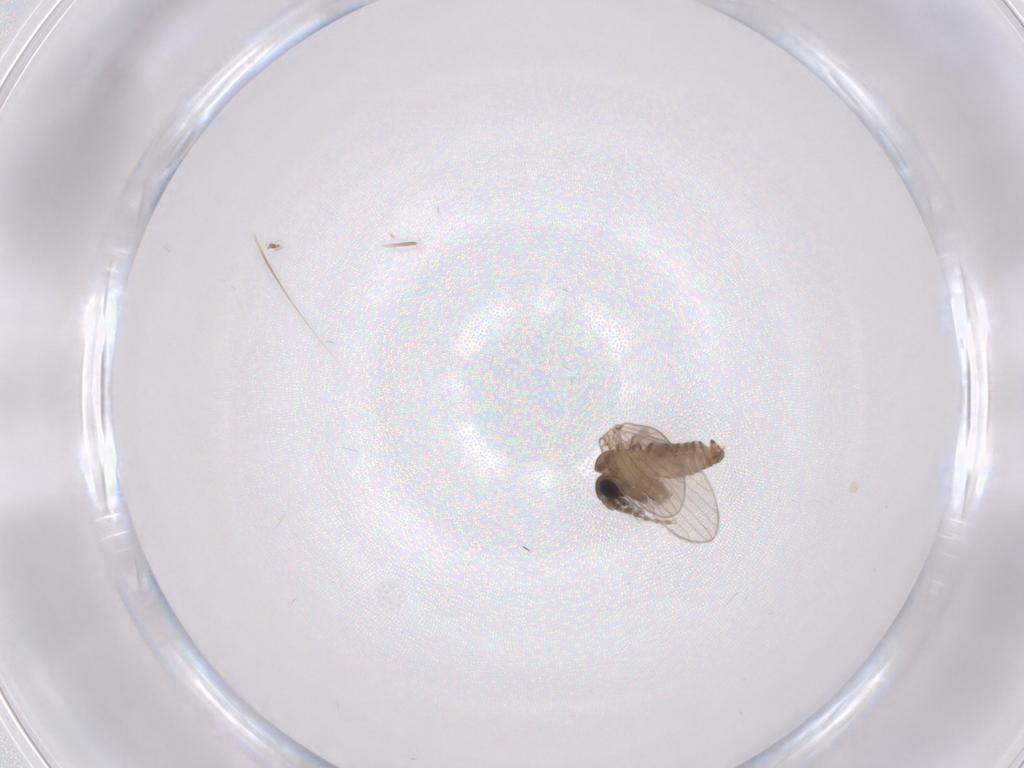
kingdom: Animalia
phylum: Arthropoda
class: Insecta
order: Diptera
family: Psychodidae
